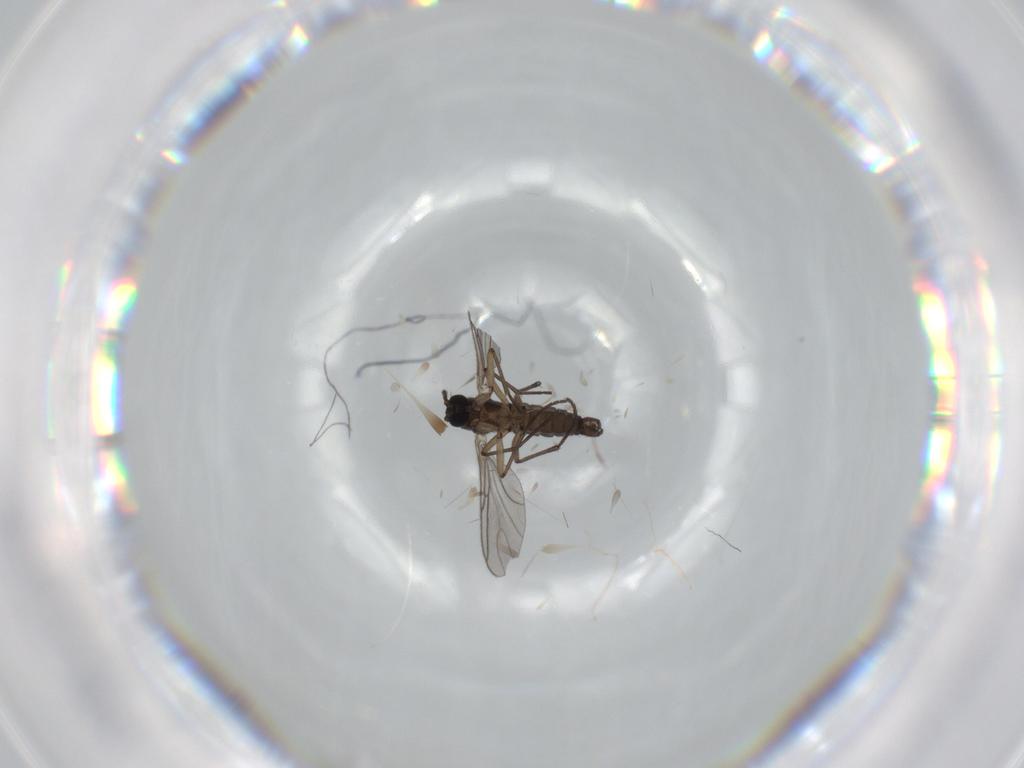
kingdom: Animalia
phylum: Arthropoda
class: Insecta
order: Diptera
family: Sciaridae
